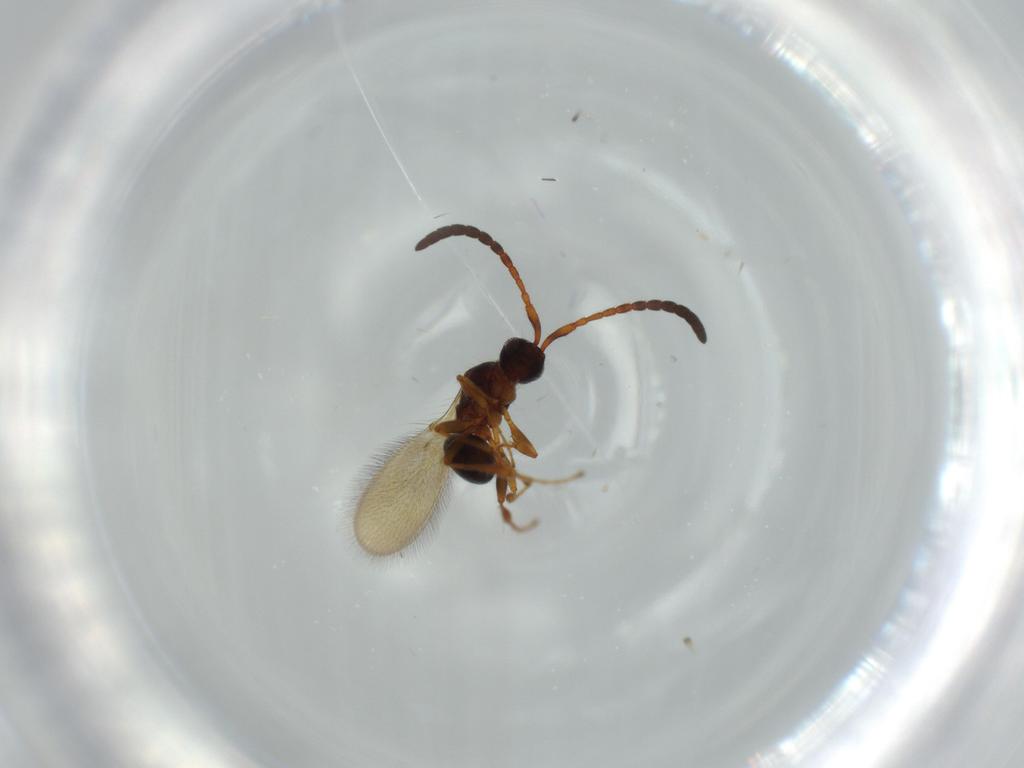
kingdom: Animalia
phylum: Arthropoda
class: Insecta
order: Hymenoptera
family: Diapriidae
